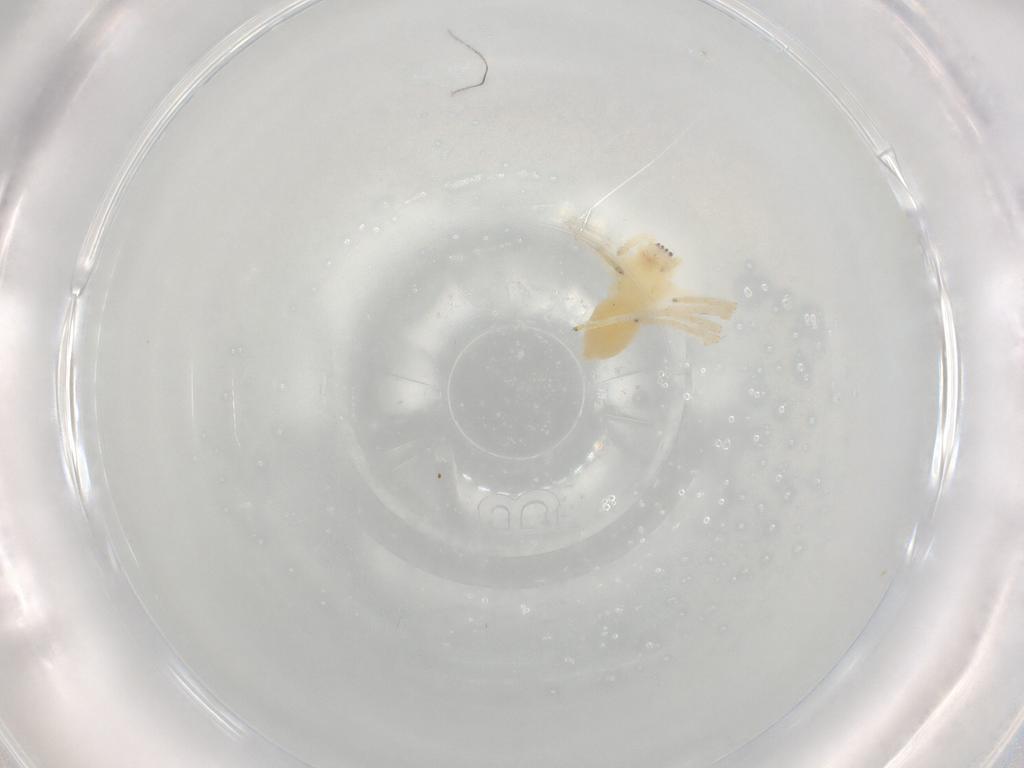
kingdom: Animalia
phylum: Arthropoda
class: Arachnida
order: Araneae
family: Anyphaenidae
